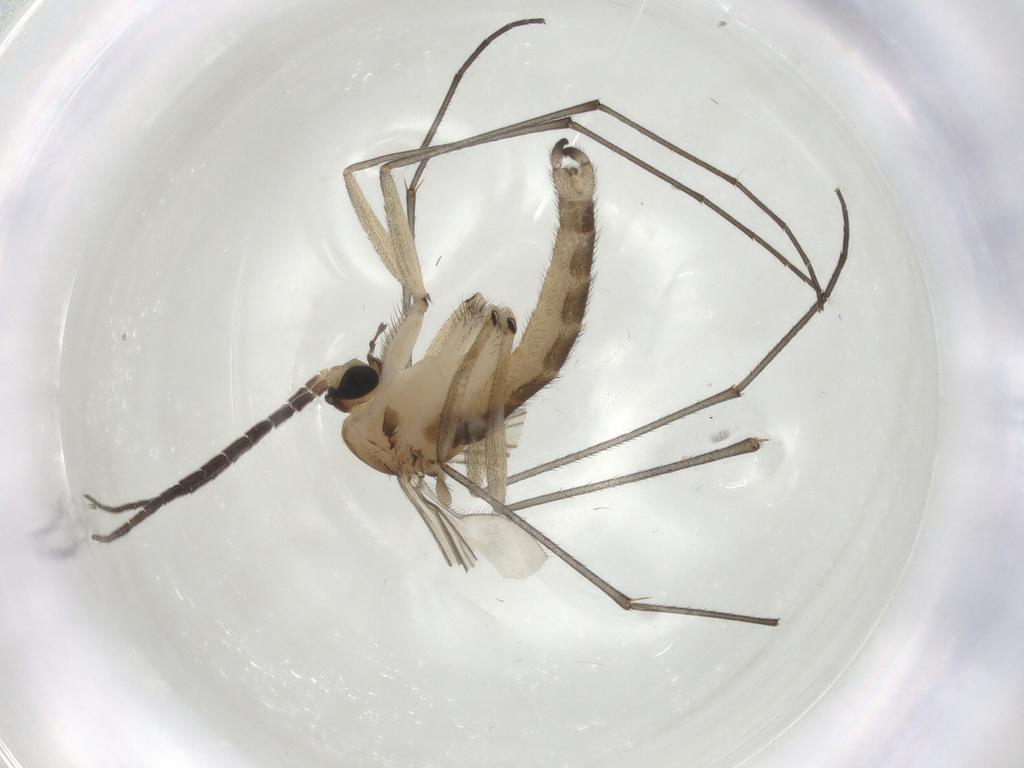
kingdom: Animalia
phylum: Arthropoda
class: Insecta
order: Diptera
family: Sciaridae
